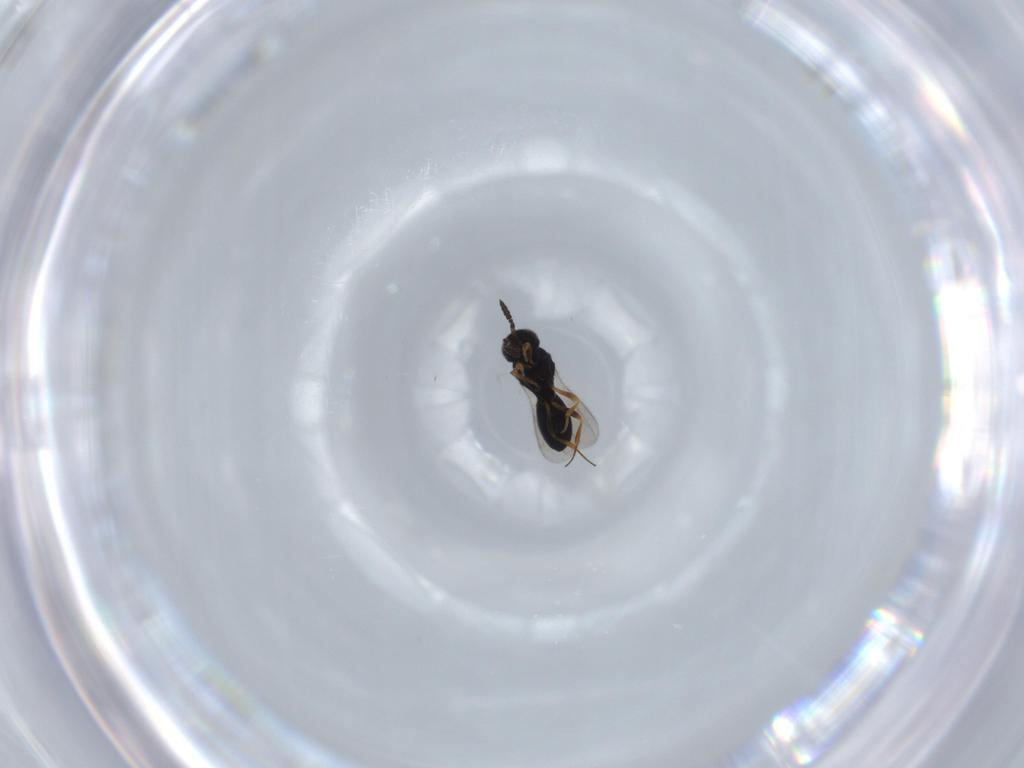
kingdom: Animalia
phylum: Arthropoda
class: Insecta
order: Hymenoptera
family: Scelionidae
